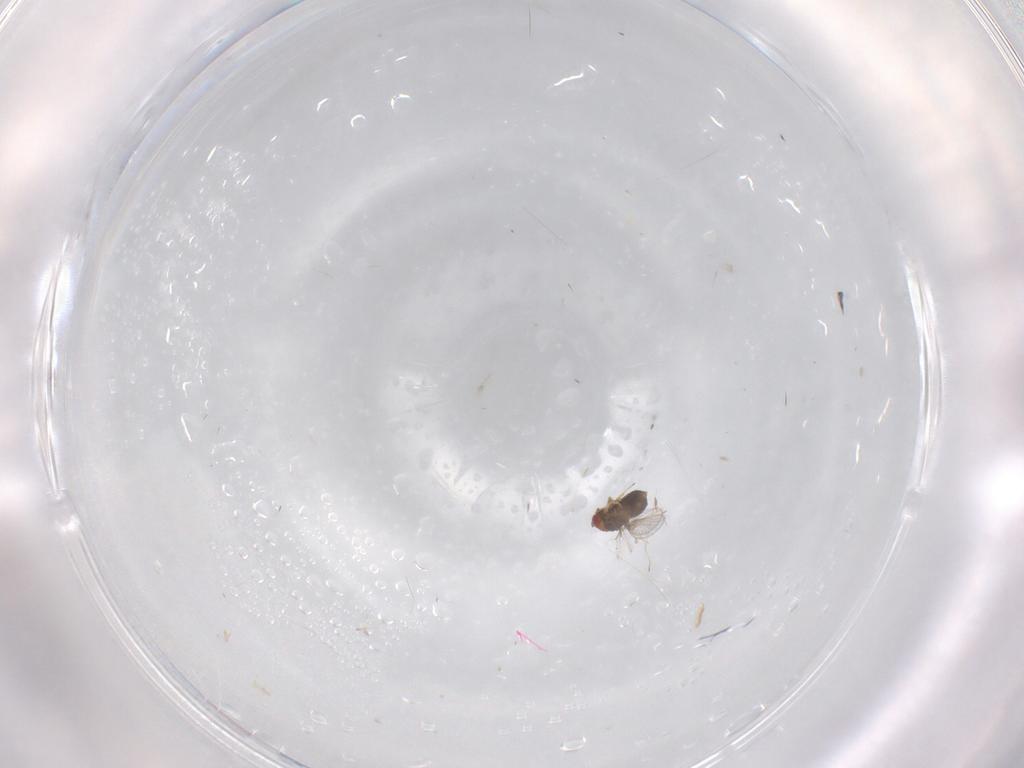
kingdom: Animalia
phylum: Arthropoda
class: Insecta
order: Hymenoptera
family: Trichogrammatidae
